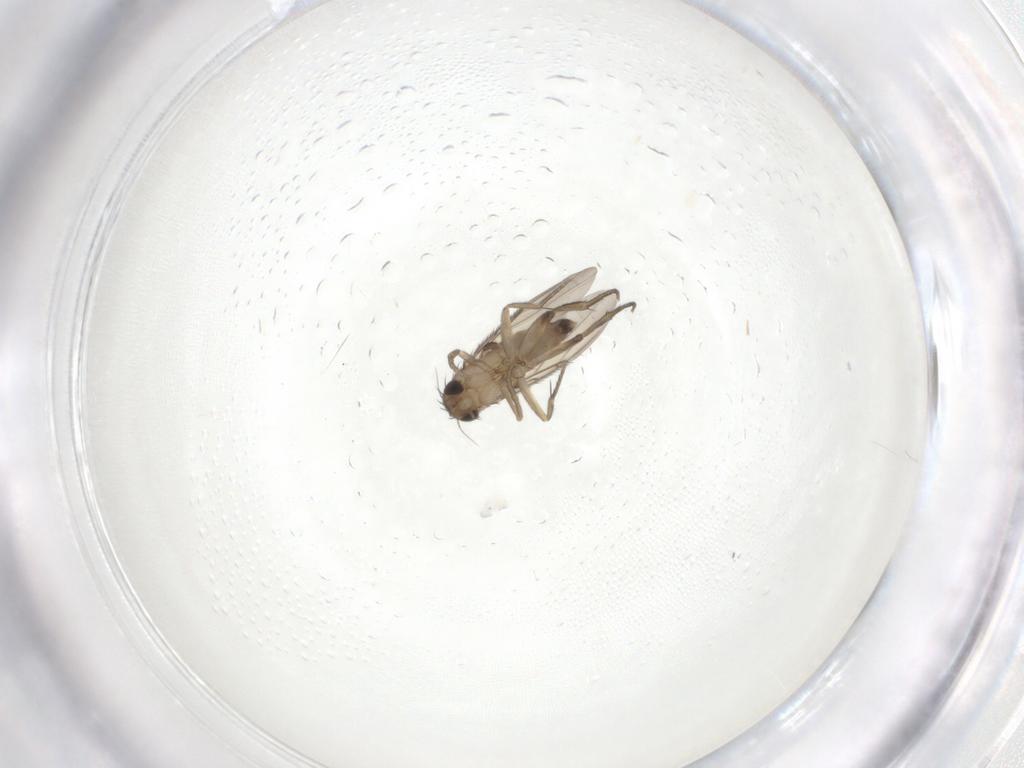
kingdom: Animalia
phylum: Arthropoda
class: Insecta
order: Diptera
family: Phoridae
